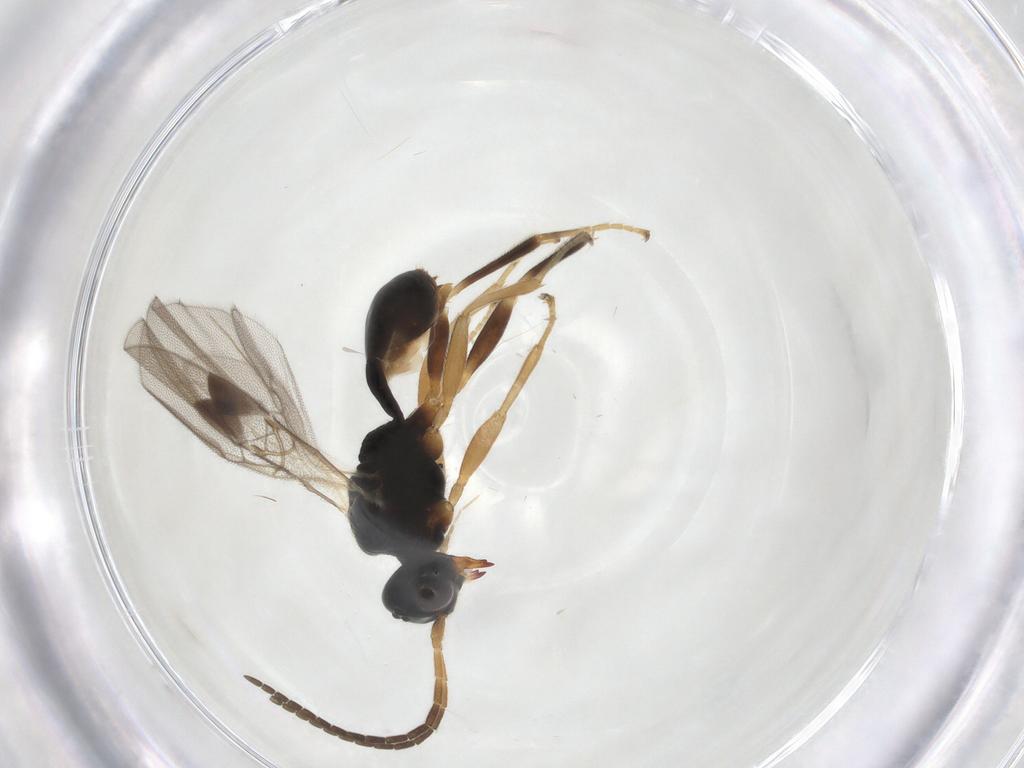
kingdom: Animalia
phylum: Arthropoda
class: Insecta
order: Hymenoptera
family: Braconidae
